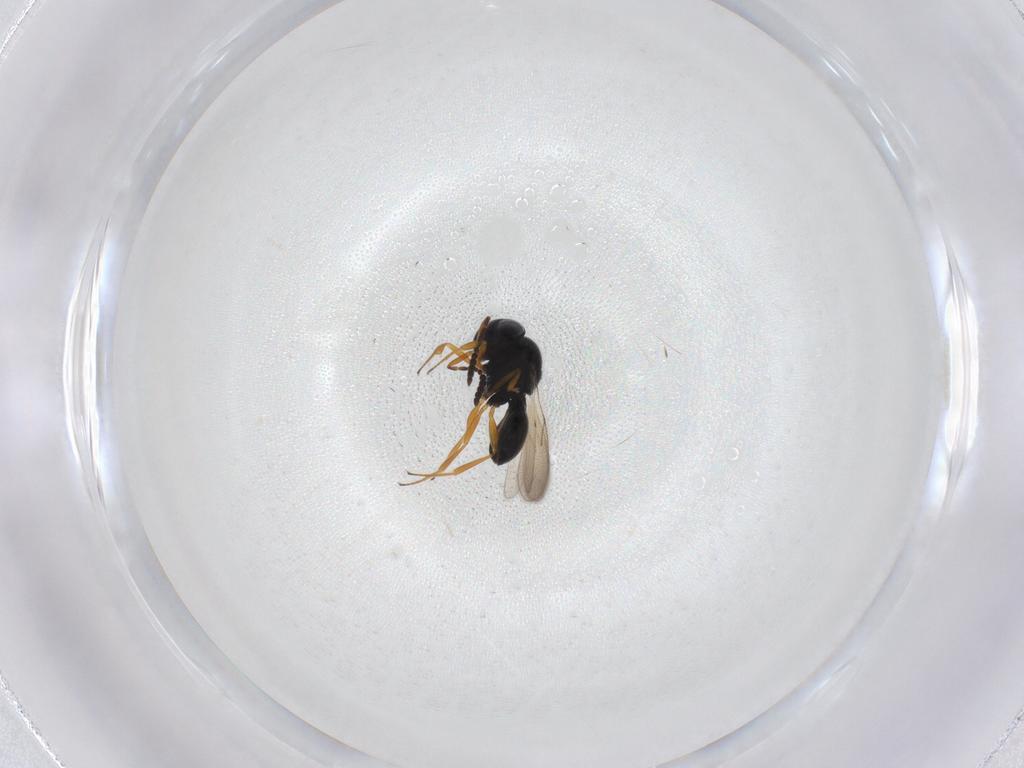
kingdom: Animalia
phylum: Arthropoda
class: Insecta
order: Hymenoptera
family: Scelionidae
